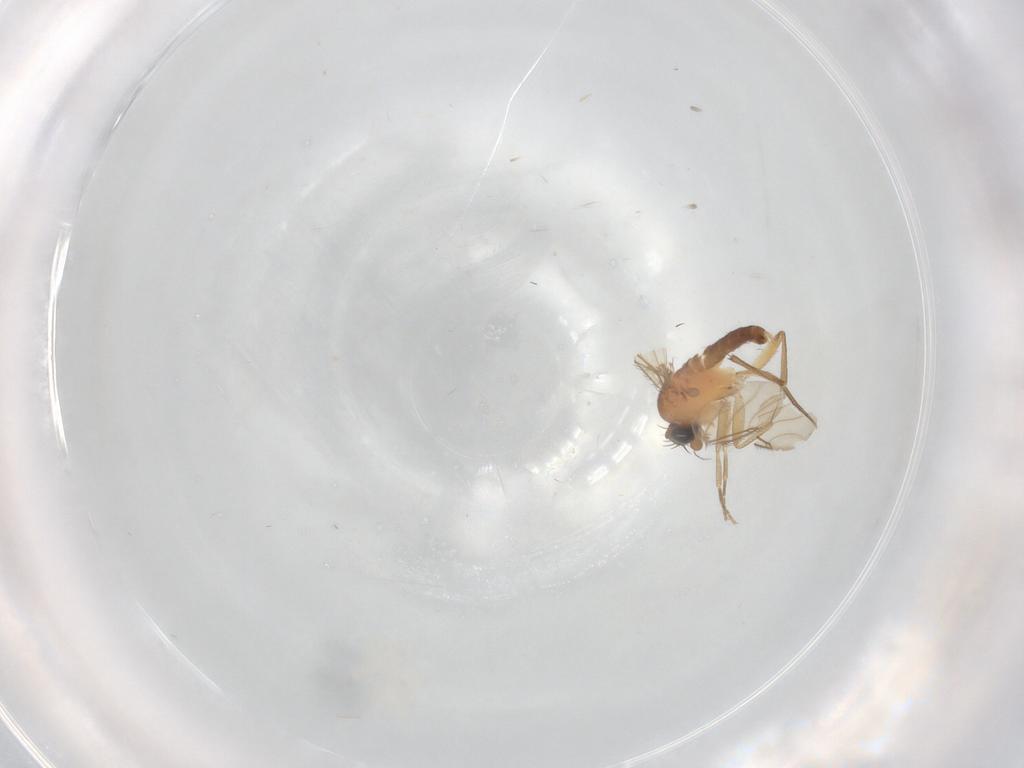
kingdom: Animalia
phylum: Arthropoda
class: Insecta
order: Diptera
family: Cecidomyiidae
